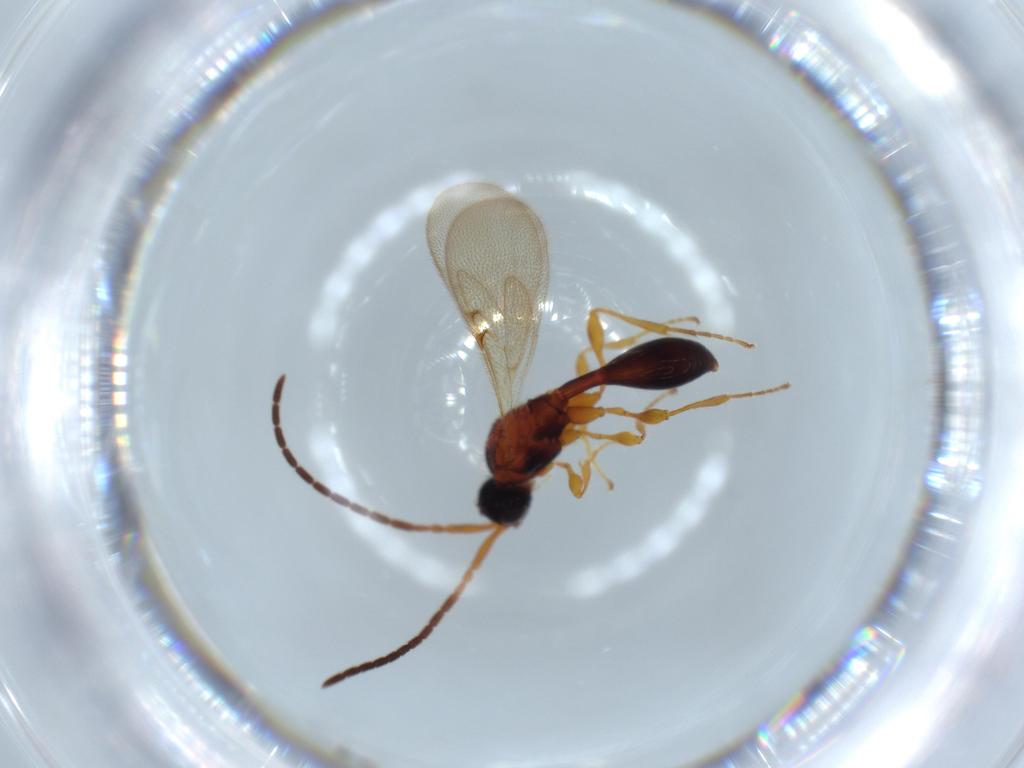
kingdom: Animalia
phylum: Arthropoda
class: Insecta
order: Hymenoptera
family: Diapriidae
